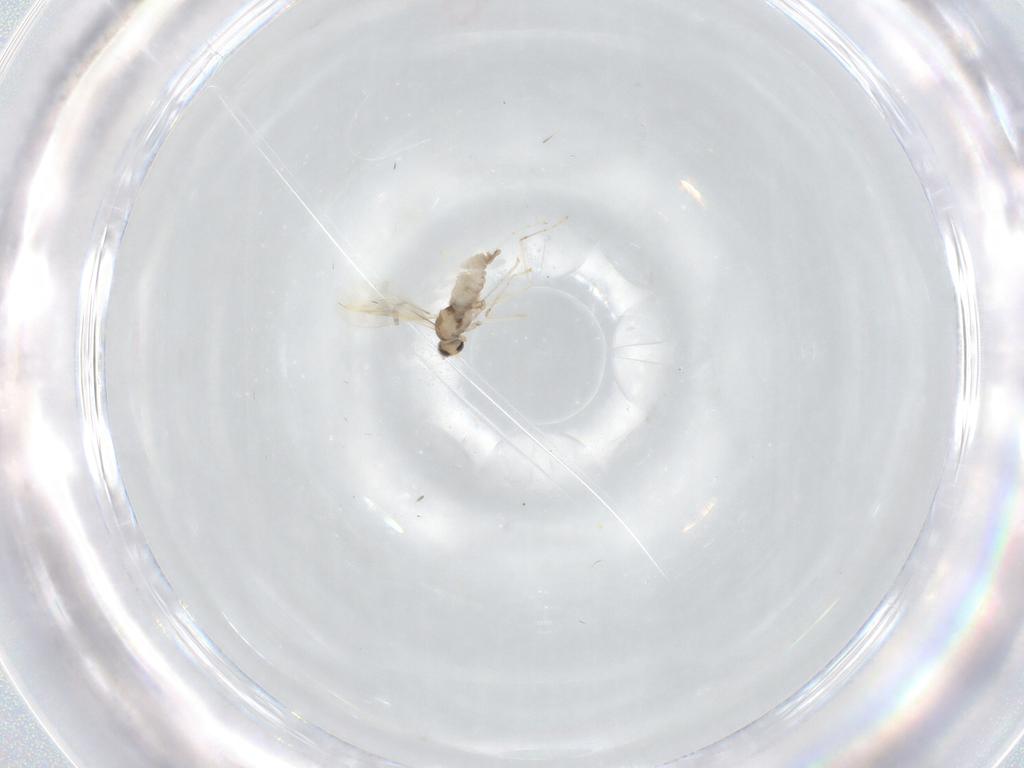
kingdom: Animalia
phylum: Arthropoda
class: Insecta
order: Diptera
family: Cecidomyiidae
